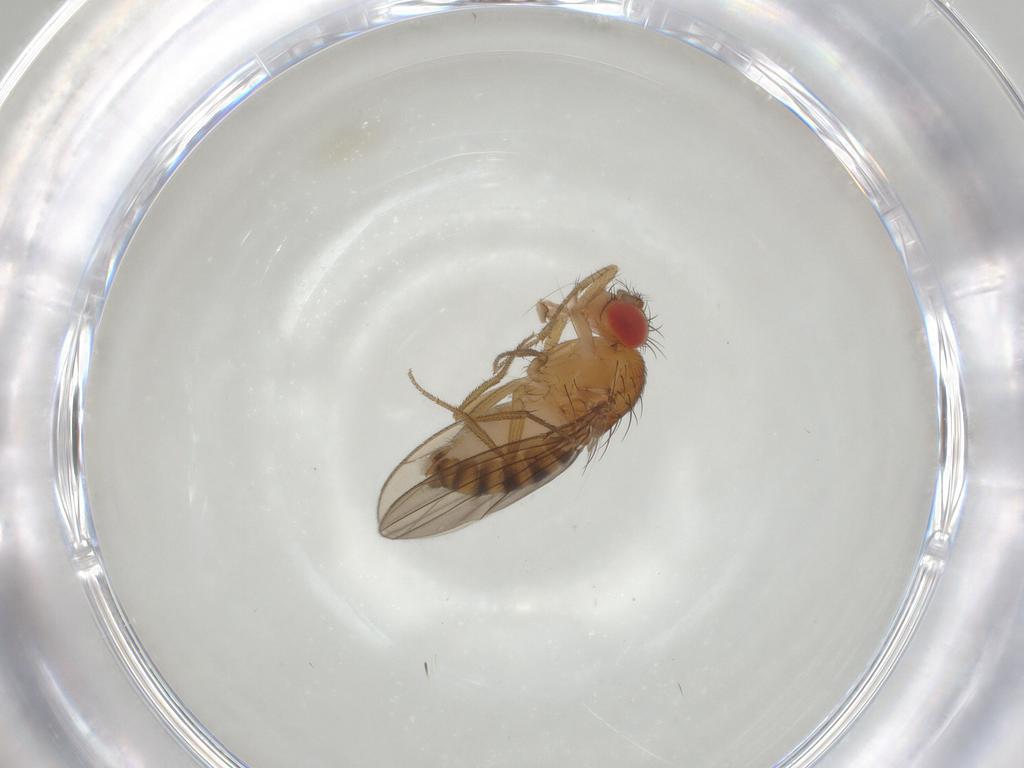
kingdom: Animalia
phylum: Arthropoda
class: Insecta
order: Diptera
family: Drosophilidae
